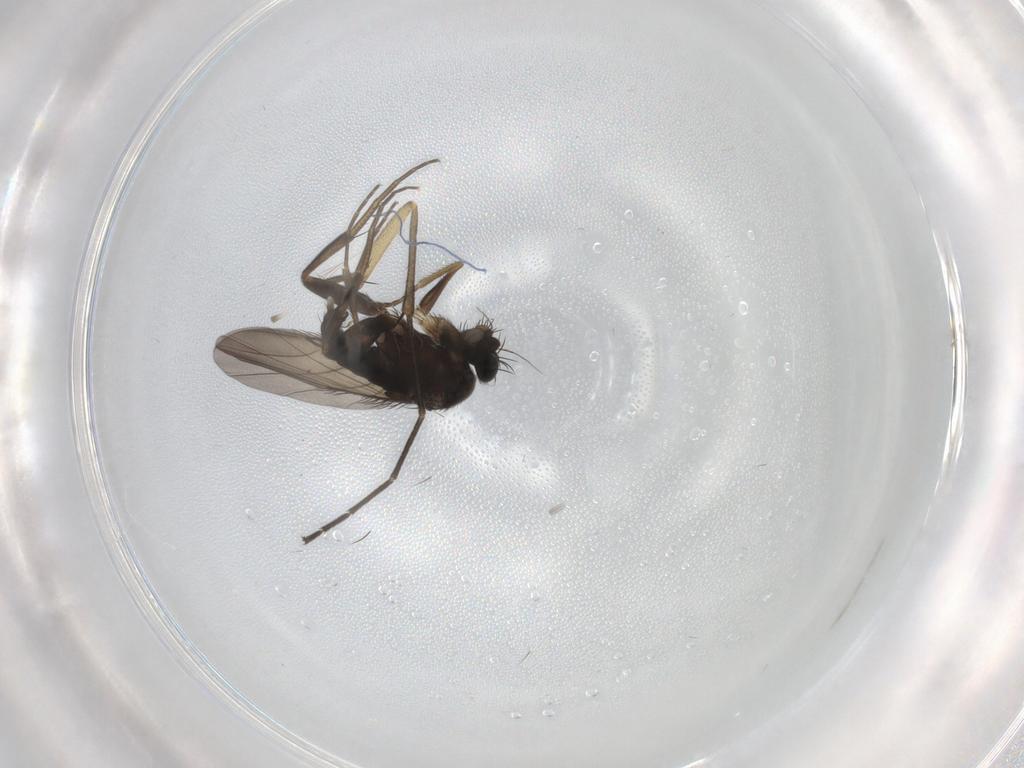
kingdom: Animalia
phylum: Arthropoda
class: Insecta
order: Diptera
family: Phoridae
